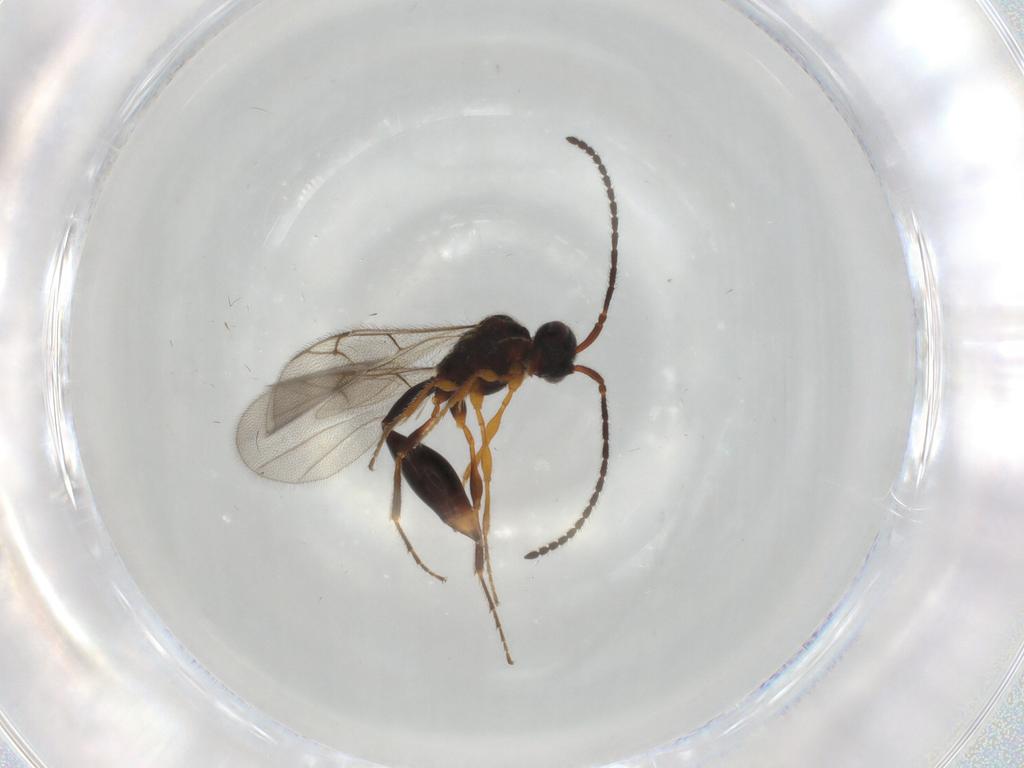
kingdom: Animalia
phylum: Arthropoda
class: Insecta
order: Hymenoptera
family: Diapriidae
